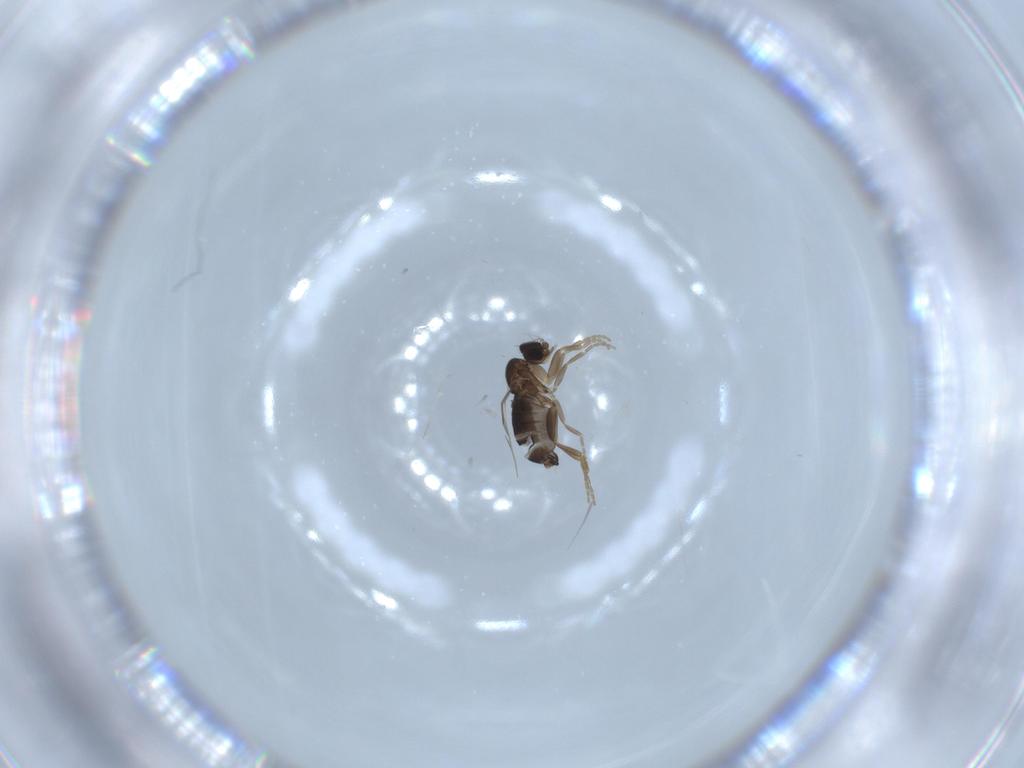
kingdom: Animalia
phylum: Arthropoda
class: Insecta
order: Diptera
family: Phoridae
